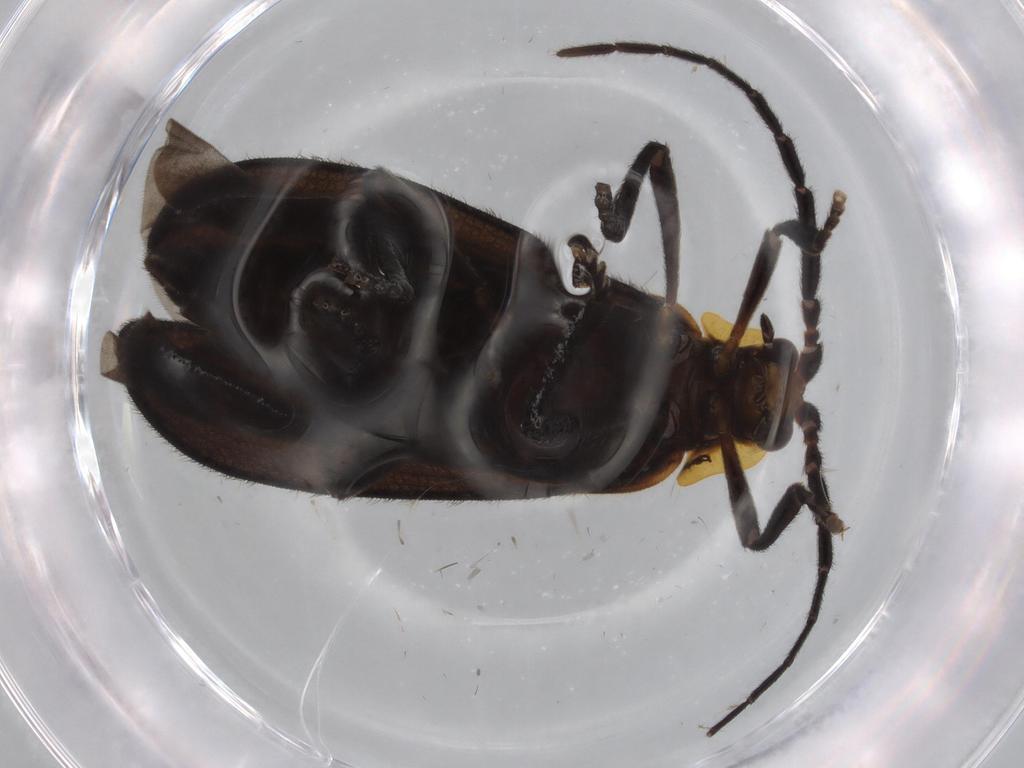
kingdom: Animalia
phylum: Arthropoda
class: Insecta
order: Coleoptera
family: Lycidae
